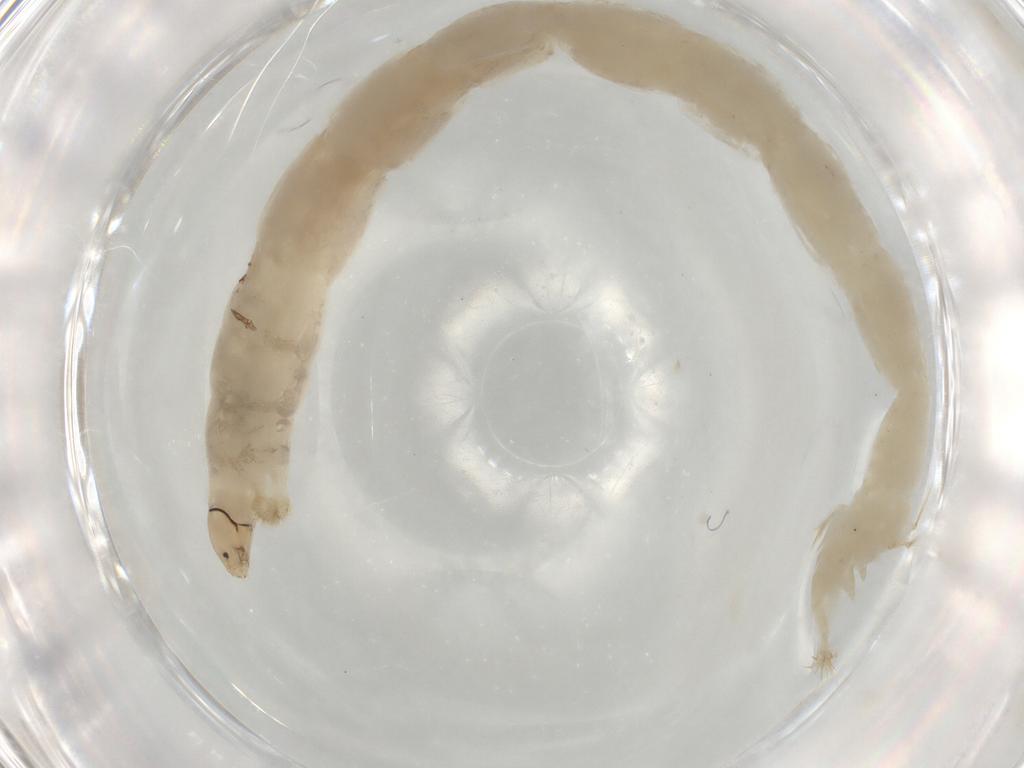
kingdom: Animalia
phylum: Arthropoda
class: Insecta
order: Diptera
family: Chironomidae
